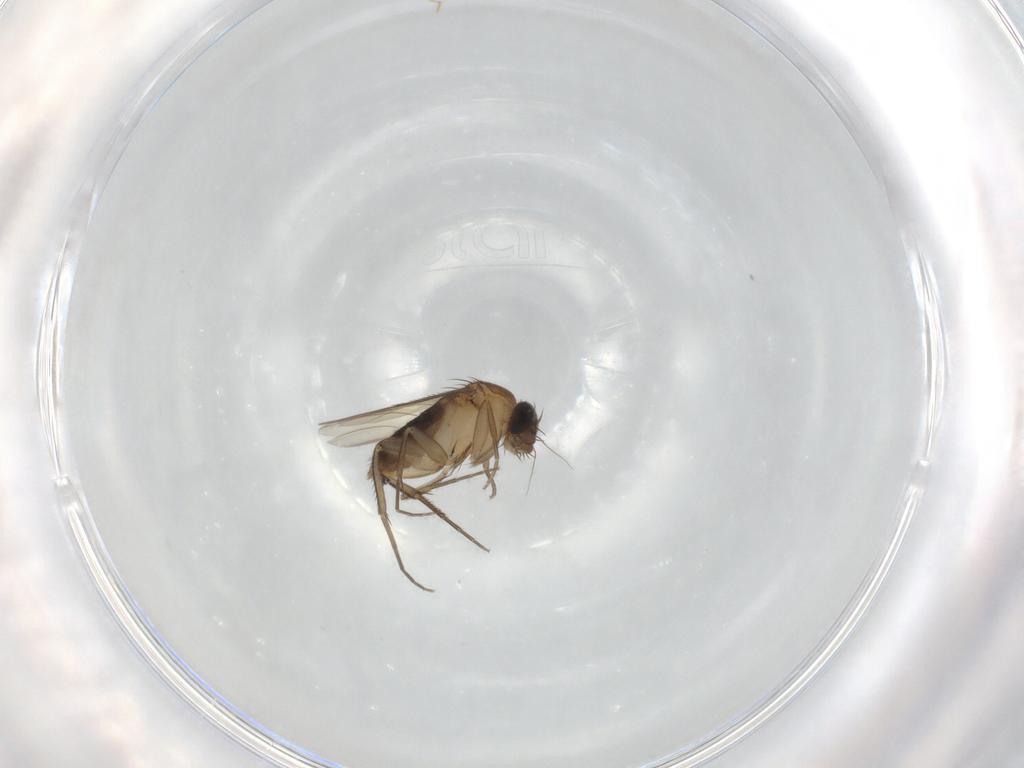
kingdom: Animalia
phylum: Arthropoda
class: Insecta
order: Diptera
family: Phoridae
